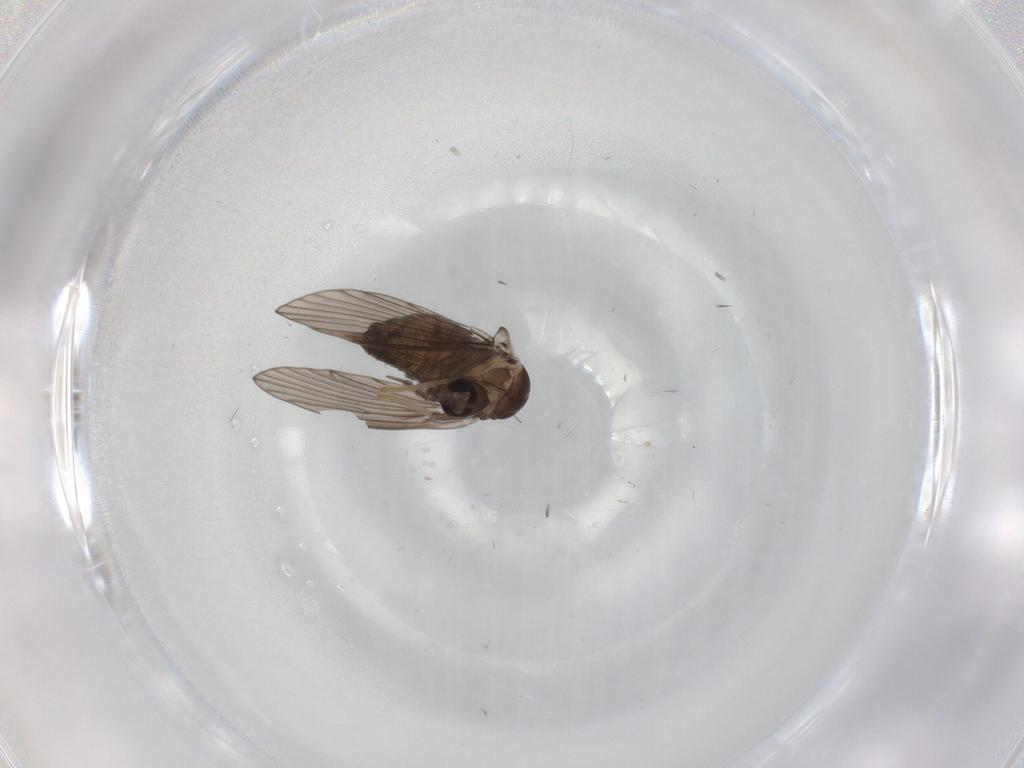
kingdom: Animalia
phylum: Arthropoda
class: Insecta
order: Diptera
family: Psychodidae
